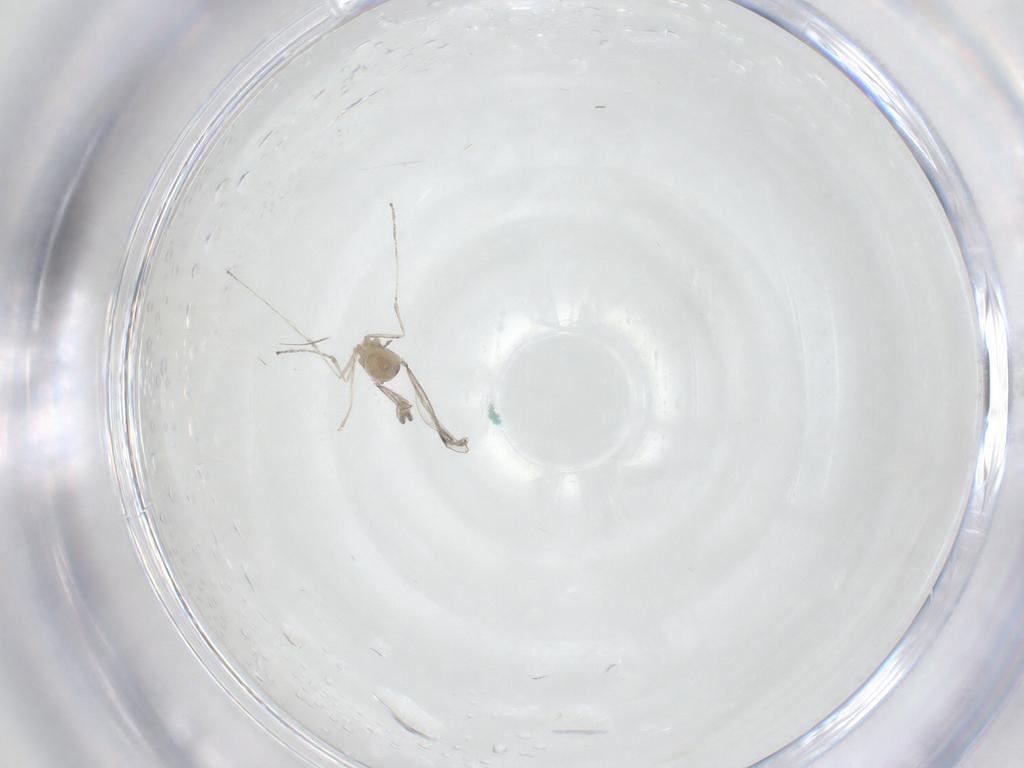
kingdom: Animalia
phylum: Arthropoda
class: Insecta
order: Diptera
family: Cecidomyiidae
